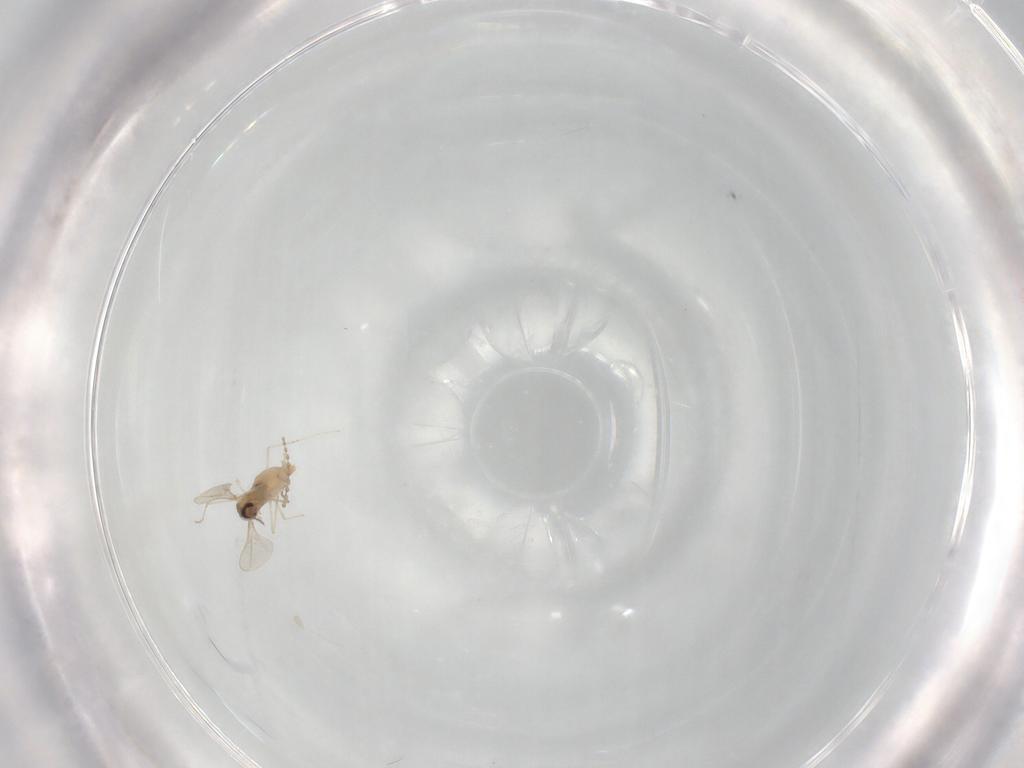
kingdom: Animalia
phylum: Arthropoda
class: Insecta
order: Diptera
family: Cecidomyiidae
